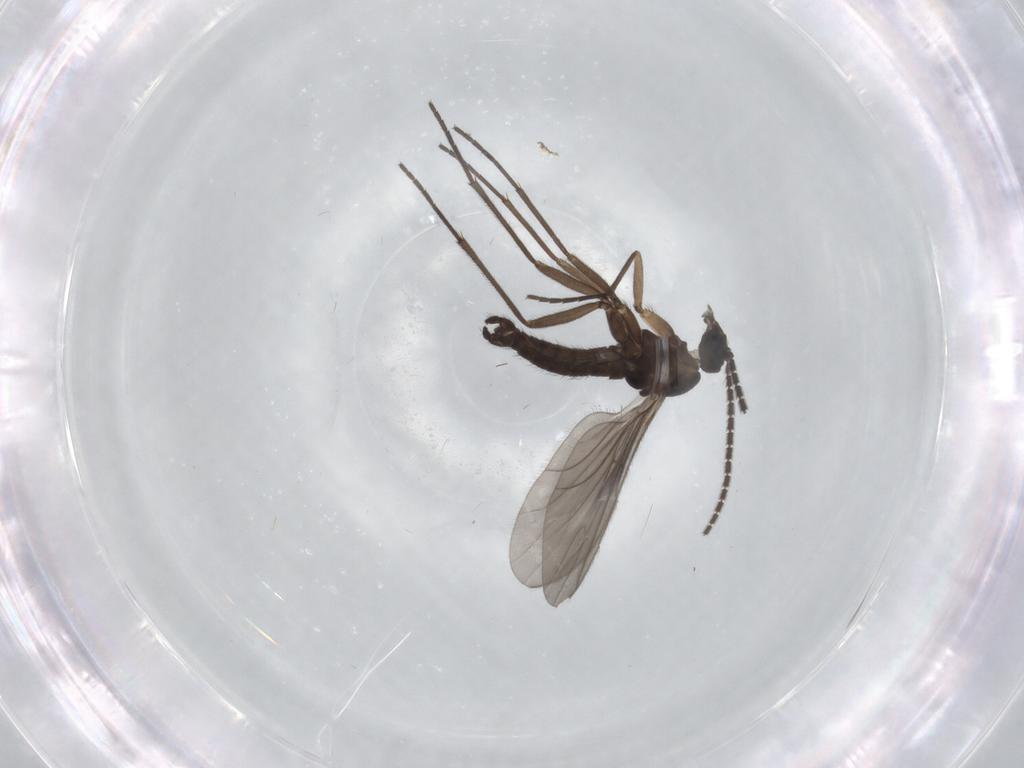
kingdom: Animalia
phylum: Arthropoda
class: Insecta
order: Diptera
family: Sciaridae
